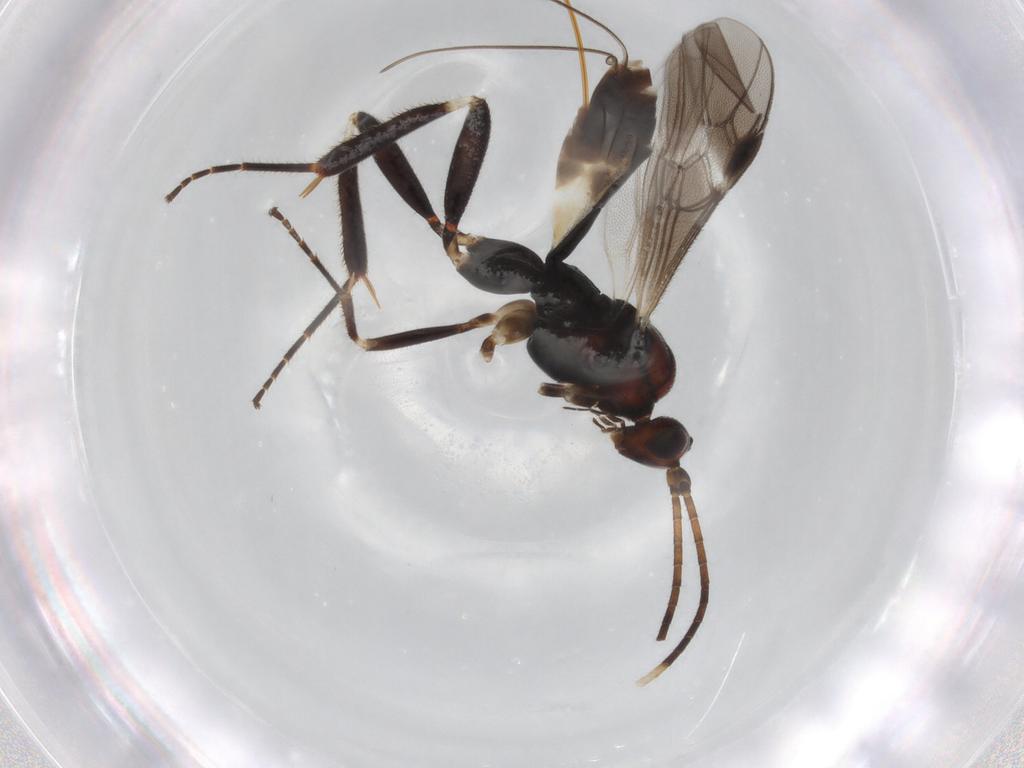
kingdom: Animalia
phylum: Arthropoda
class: Insecta
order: Hymenoptera
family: Braconidae
